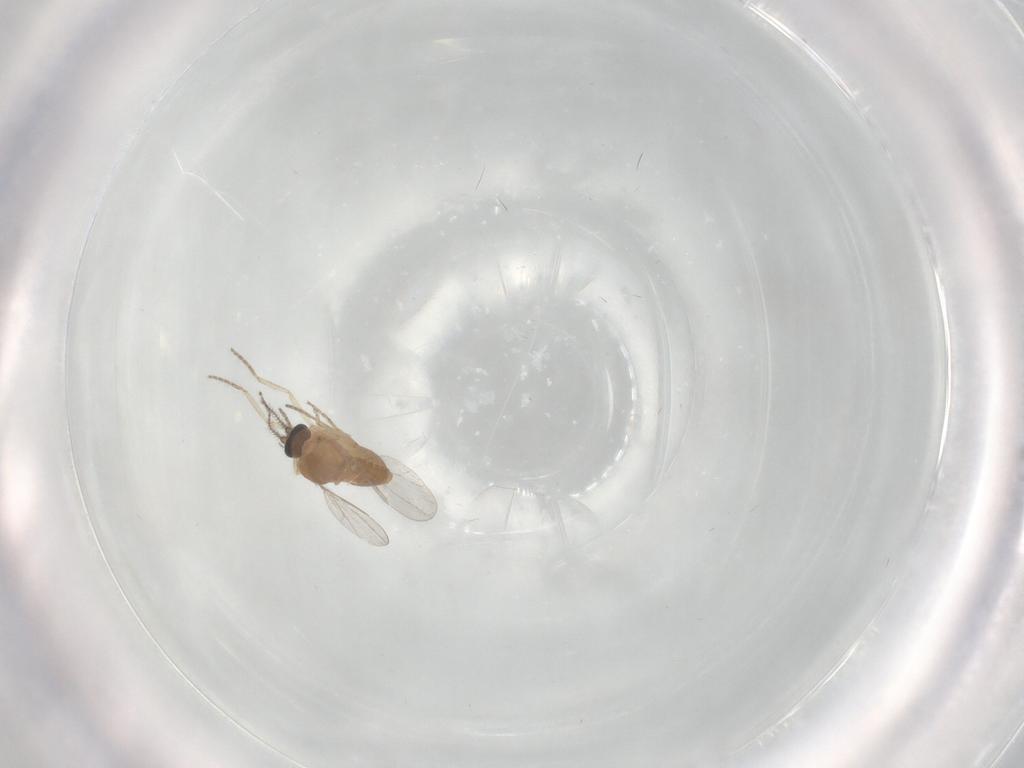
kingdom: Animalia
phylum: Arthropoda
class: Insecta
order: Diptera
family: Ceratopogonidae
